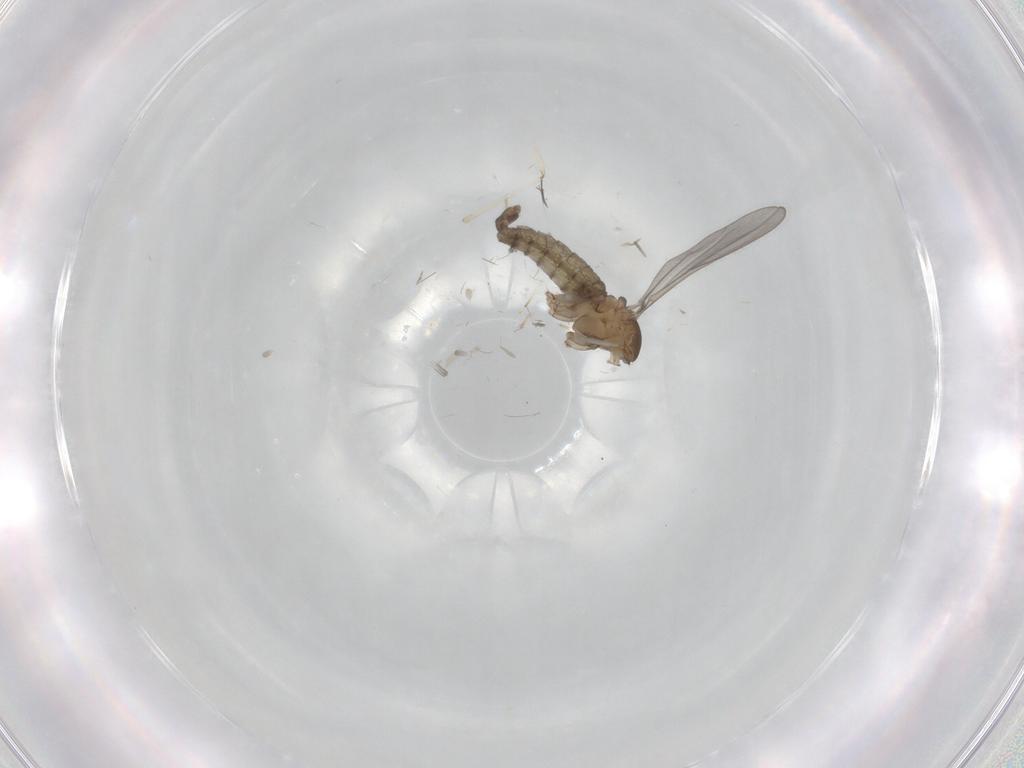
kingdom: Animalia
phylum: Arthropoda
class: Insecta
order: Diptera
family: Cecidomyiidae
